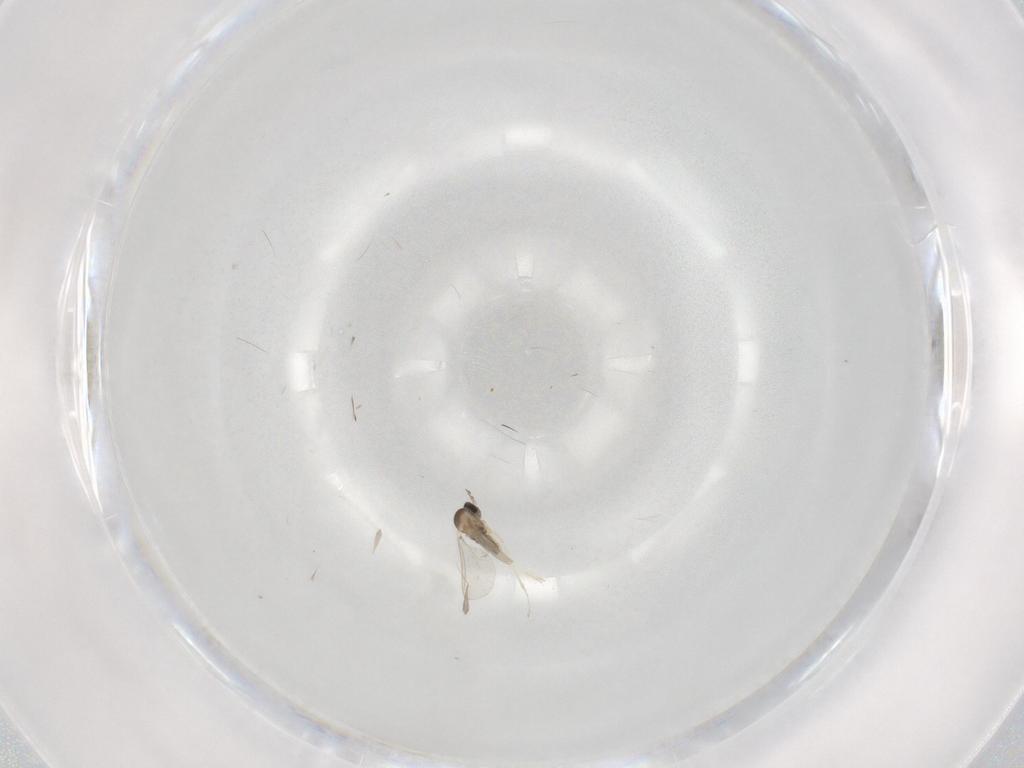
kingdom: Animalia
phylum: Arthropoda
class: Insecta
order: Diptera
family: Cecidomyiidae
